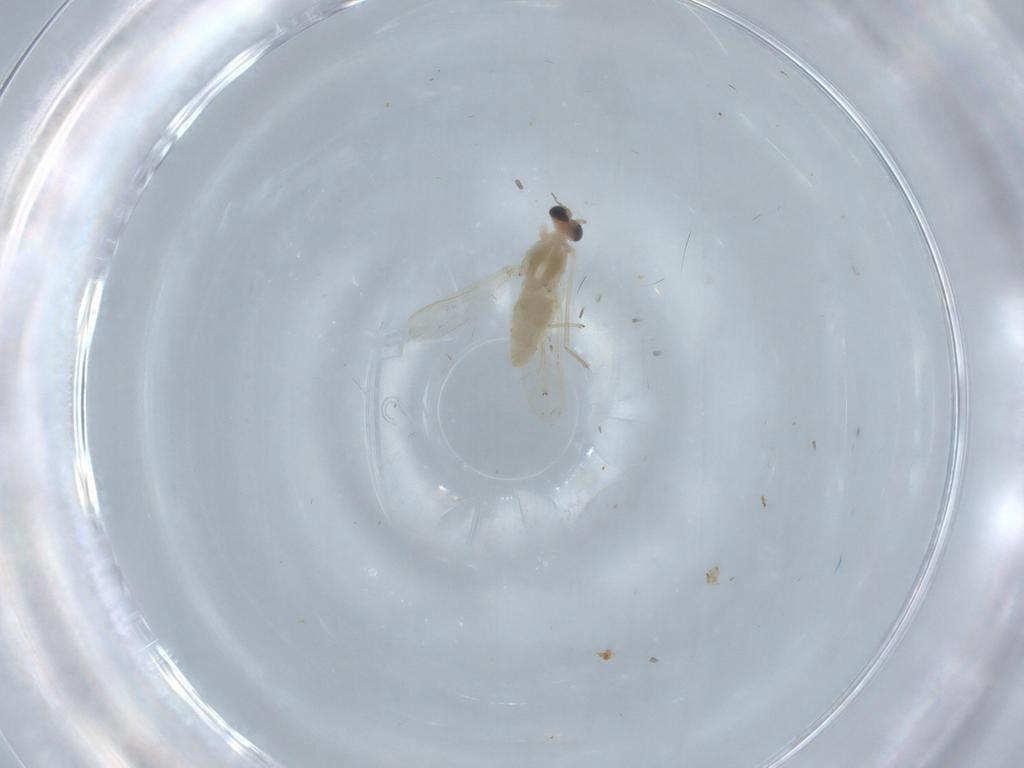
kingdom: Animalia
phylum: Arthropoda
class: Insecta
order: Diptera
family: Chironomidae
